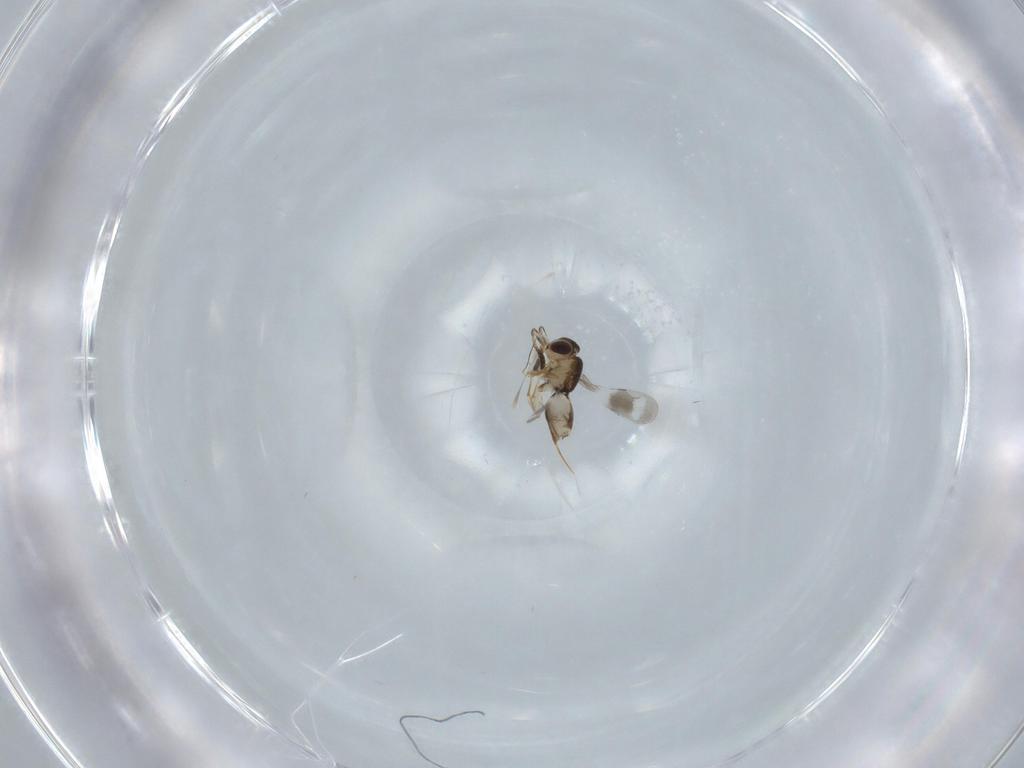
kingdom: Animalia
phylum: Arthropoda
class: Insecta
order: Hymenoptera
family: Ceraphronidae
